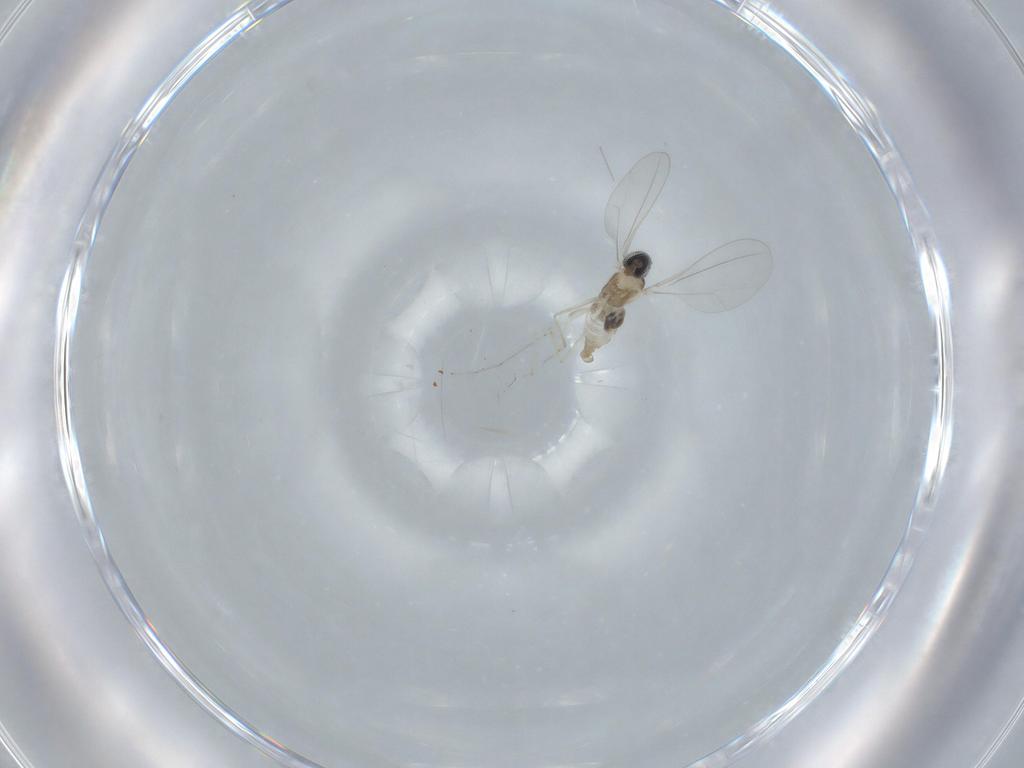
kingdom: Animalia
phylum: Arthropoda
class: Insecta
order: Diptera
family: Cecidomyiidae
